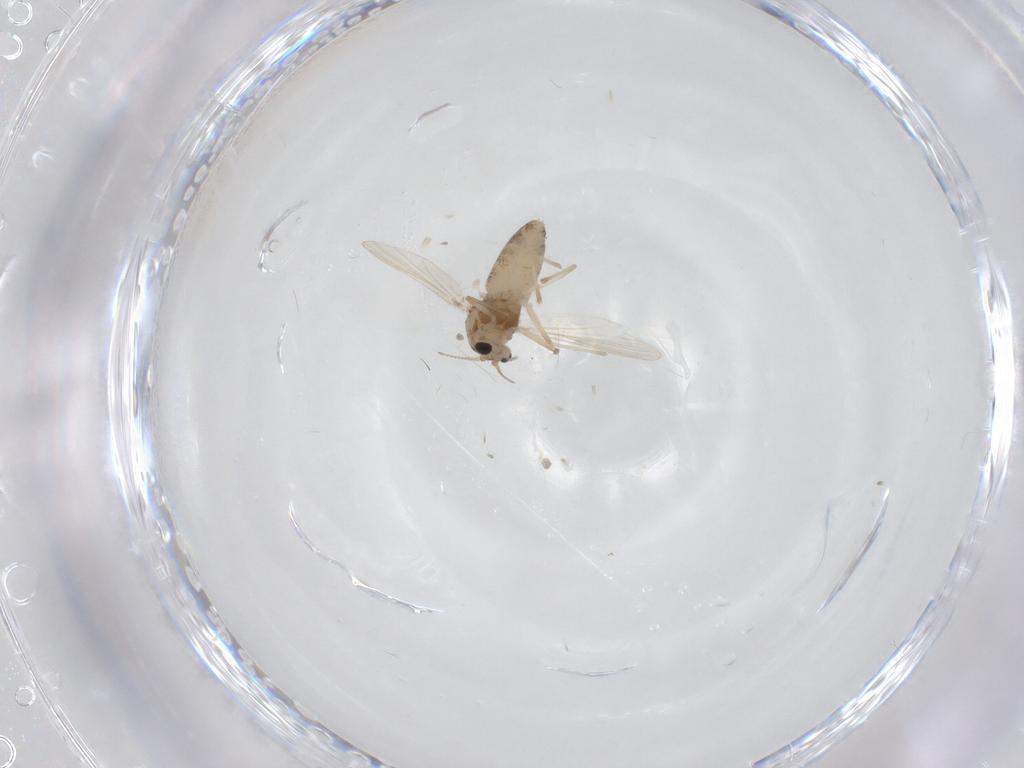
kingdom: Animalia
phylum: Arthropoda
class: Insecta
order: Diptera
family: Chironomidae
